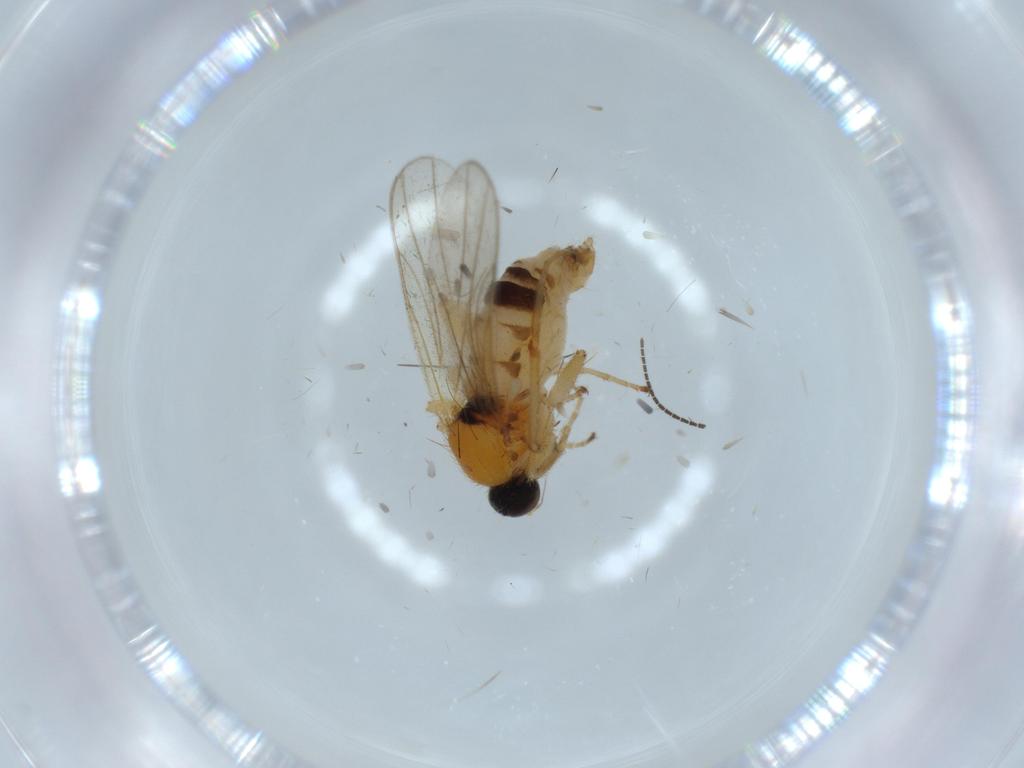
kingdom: Animalia
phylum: Arthropoda
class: Insecta
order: Diptera
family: Hybotidae
